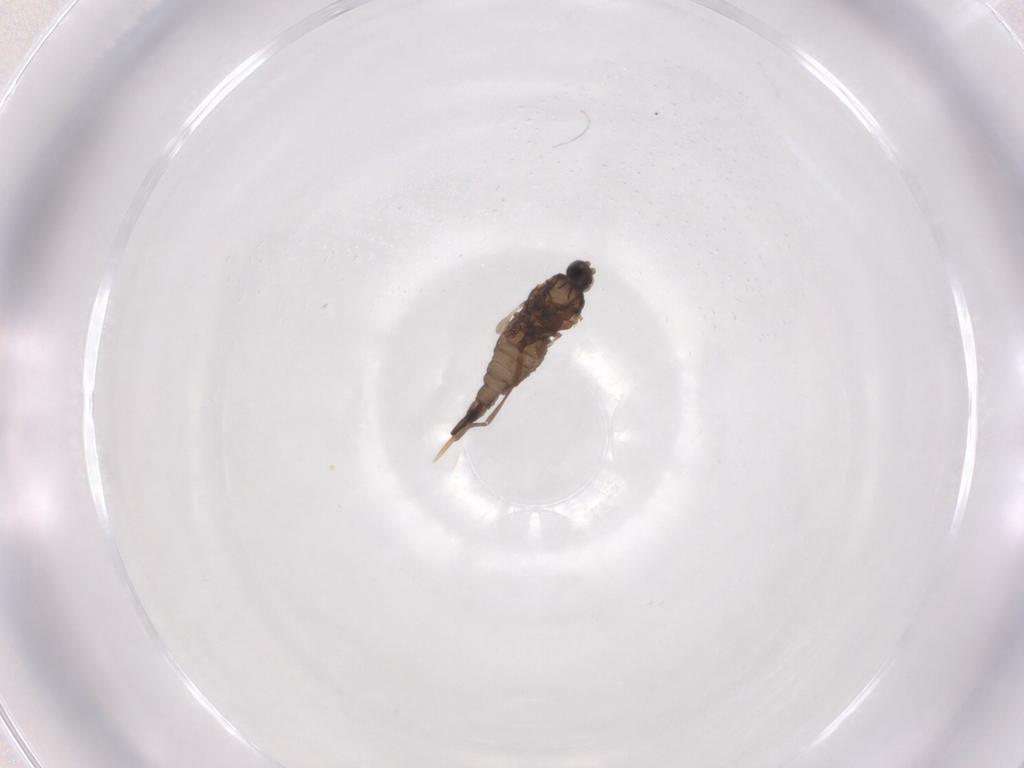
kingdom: Animalia
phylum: Arthropoda
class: Insecta
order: Diptera
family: Cecidomyiidae
